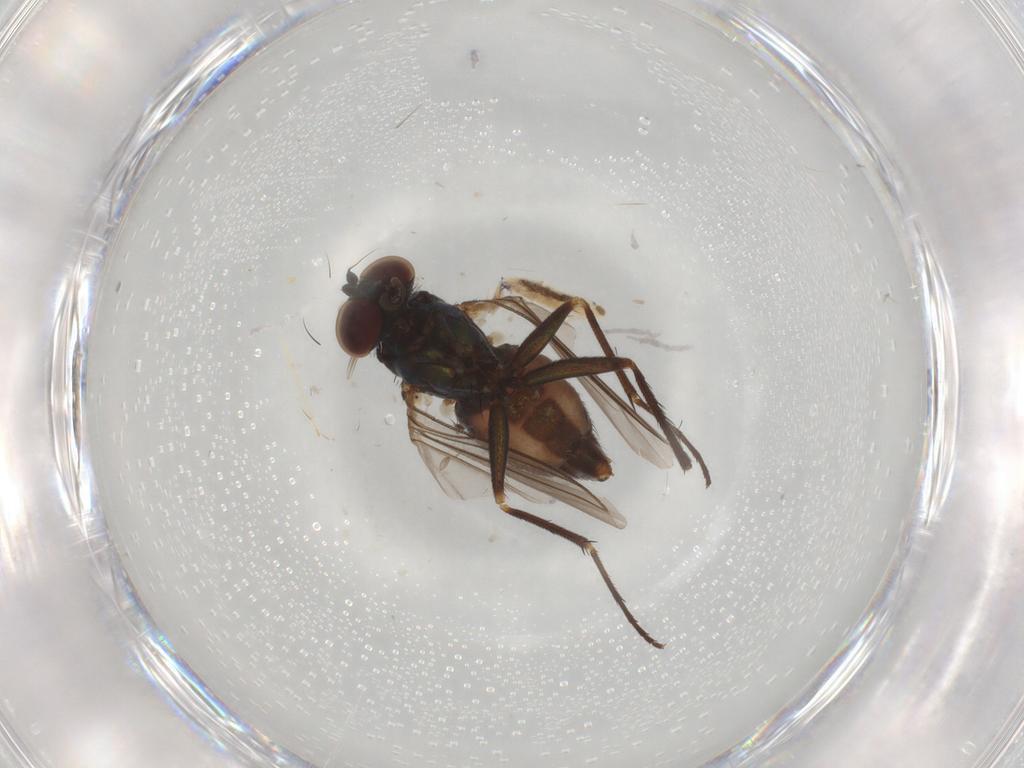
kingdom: Animalia
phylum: Arthropoda
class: Insecta
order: Diptera
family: Dolichopodidae
